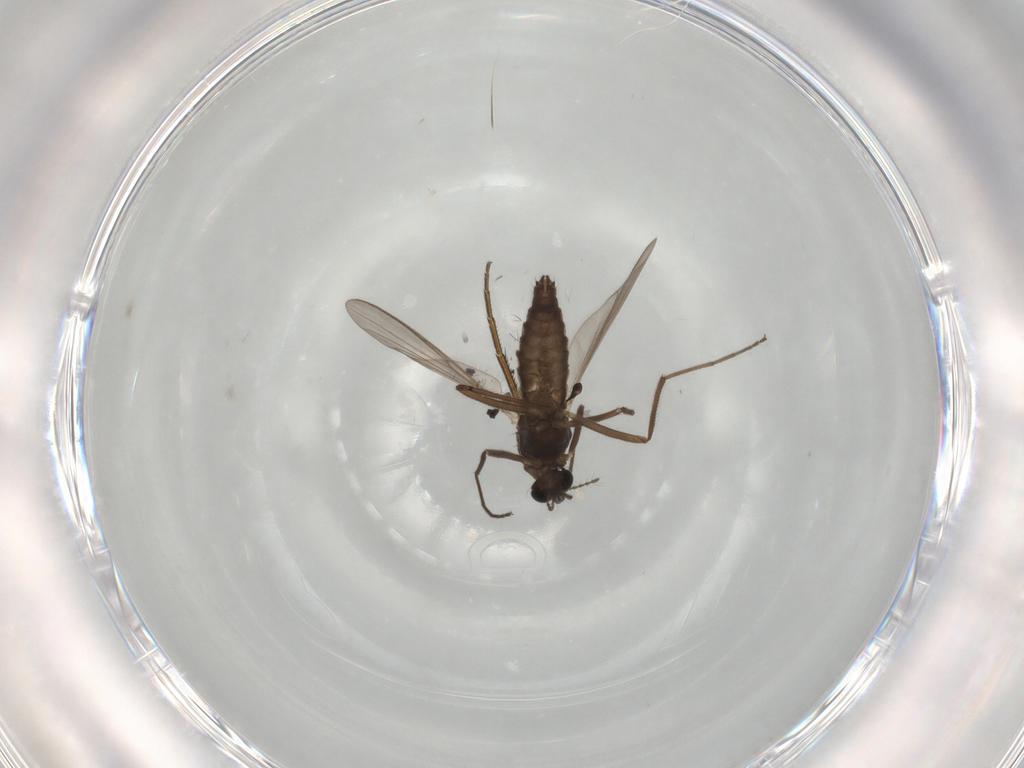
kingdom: Animalia
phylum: Arthropoda
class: Insecta
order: Diptera
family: Chironomidae
